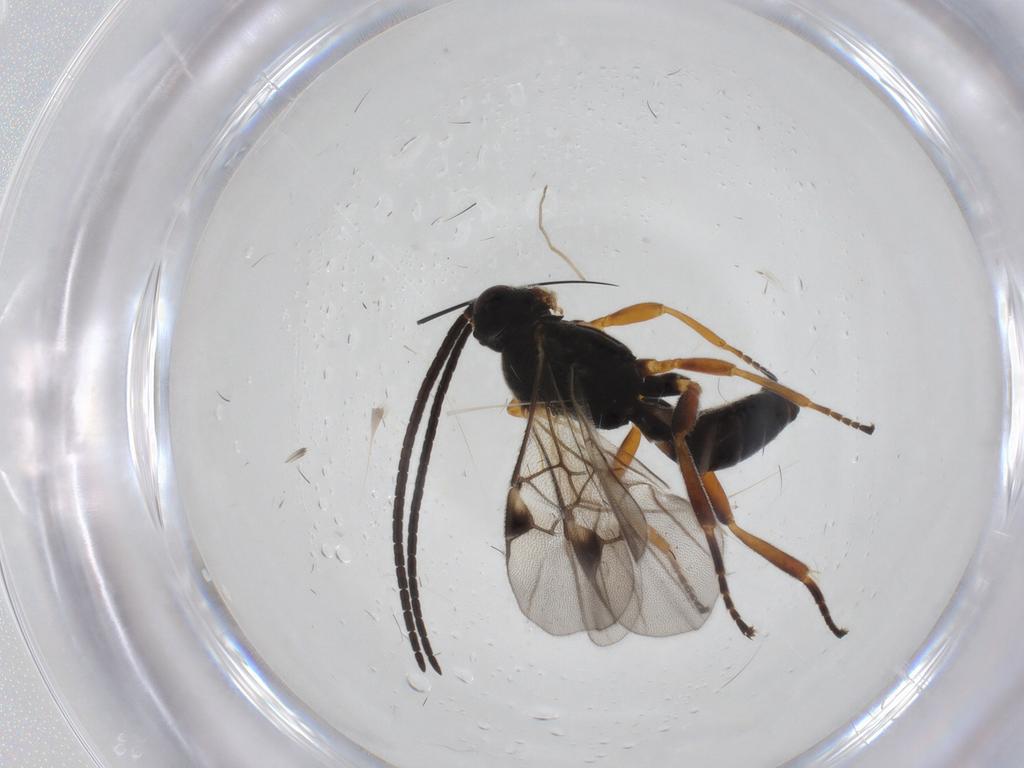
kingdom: Animalia
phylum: Arthropoda
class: Insecta
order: Hymenoptera
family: Braconidae
